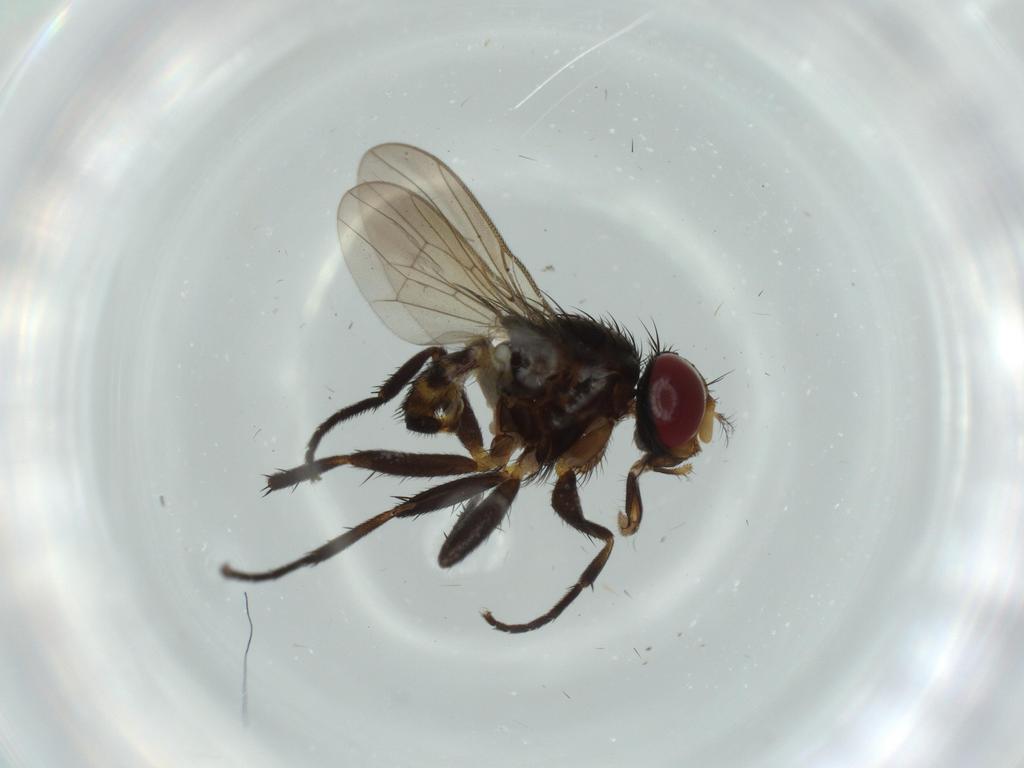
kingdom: Animalia
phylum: Arthropoda
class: Insecta
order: Diptera
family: Anthomyiidae
